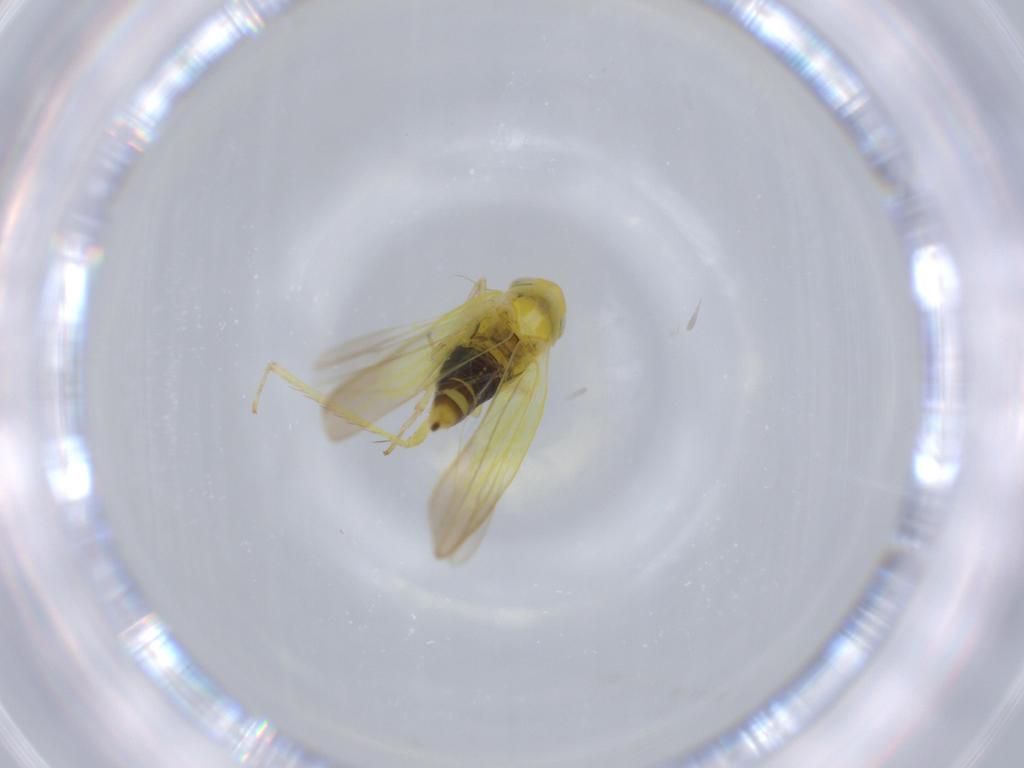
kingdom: Animalia
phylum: Arthropoda
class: Insecta
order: Hemiptera
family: Cicadellidae
